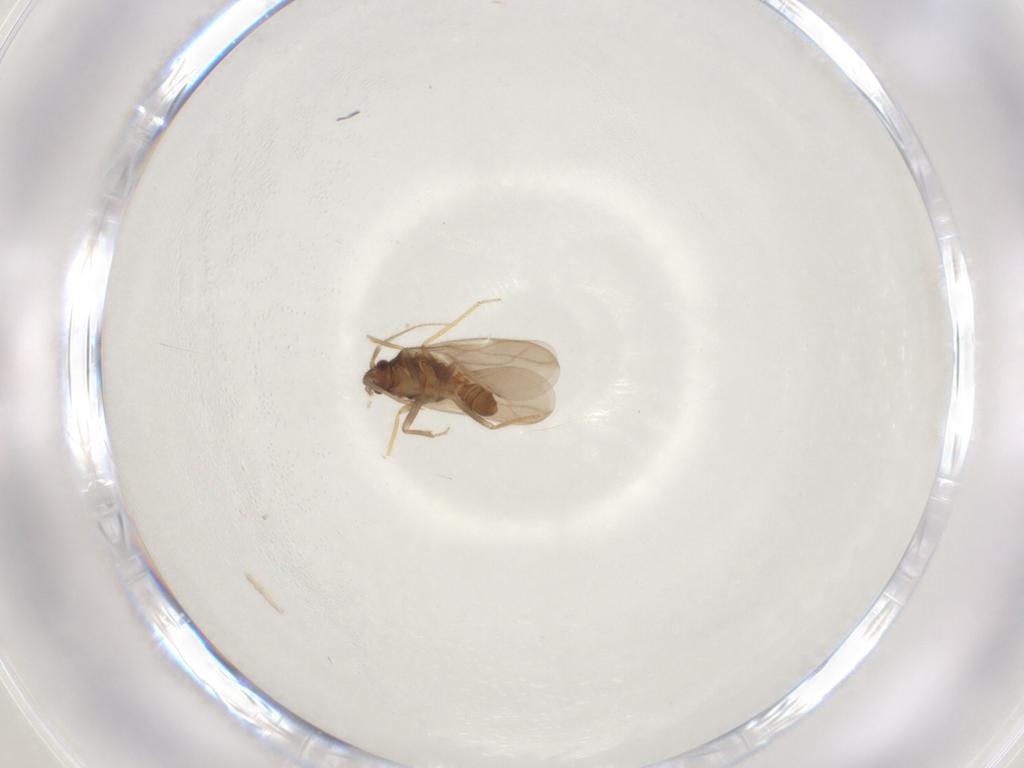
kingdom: Animalia
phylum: Arthropoda
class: Insecta
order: Hemiptera
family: Ceratocombidae
